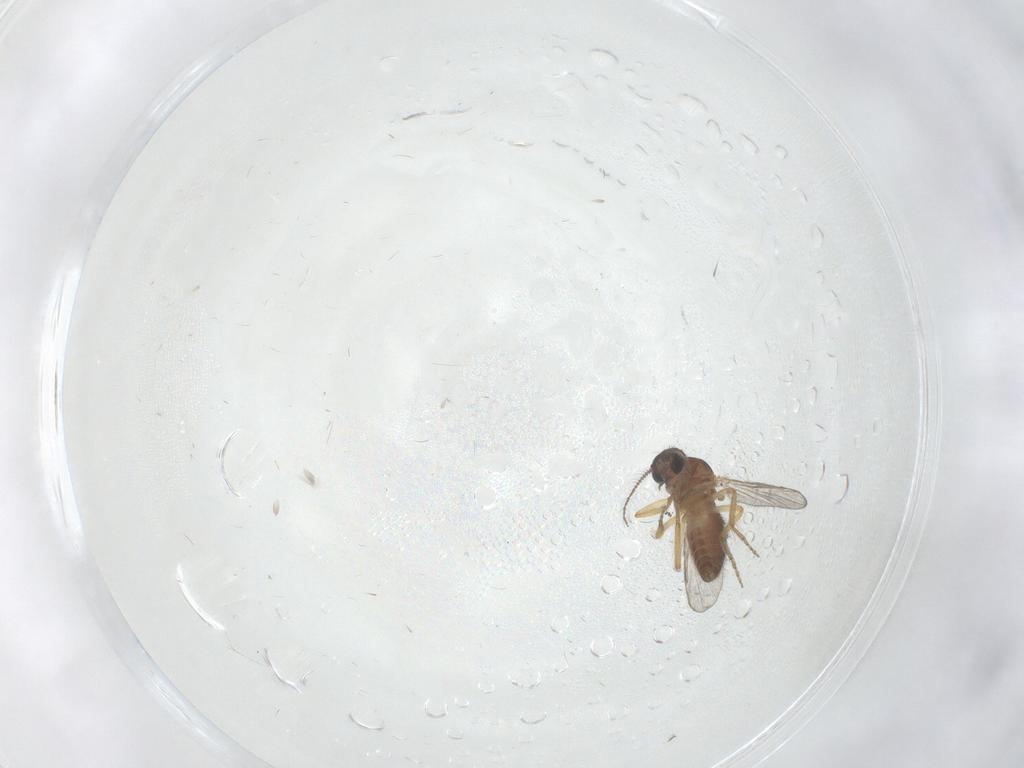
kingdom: Animalia
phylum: Arthropoda
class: Insecta
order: Diptera
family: Ceratopogonidae
